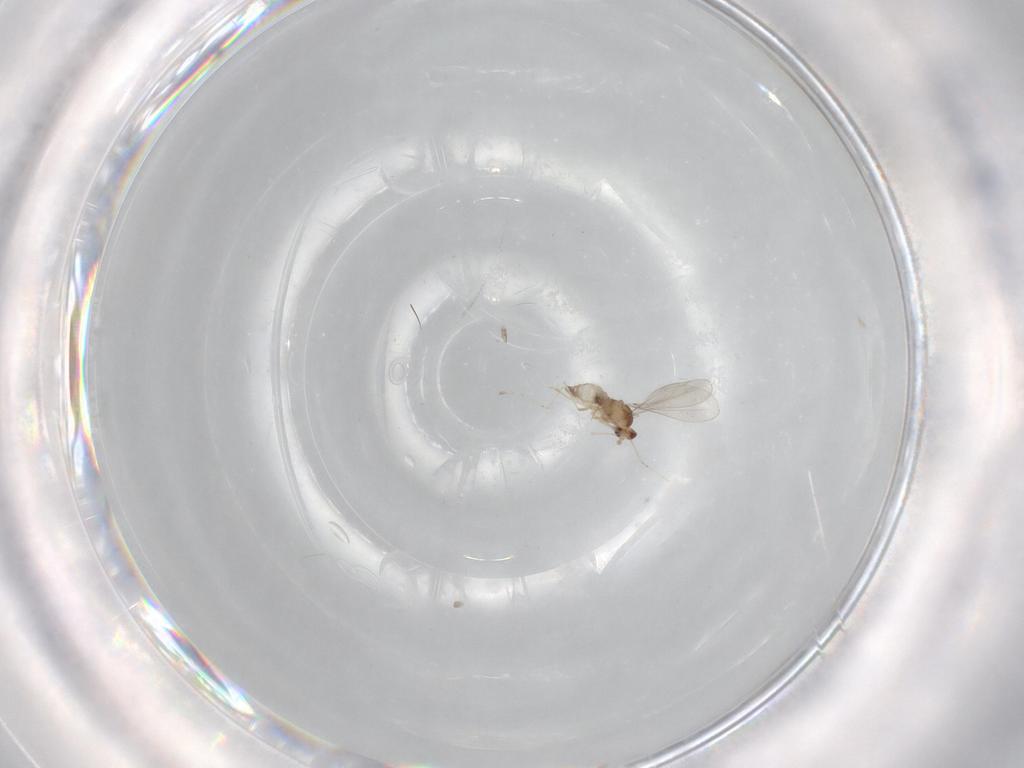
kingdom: Animalia
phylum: Arthropoda
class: Insecta
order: Diptera
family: Cecidomyiidae
